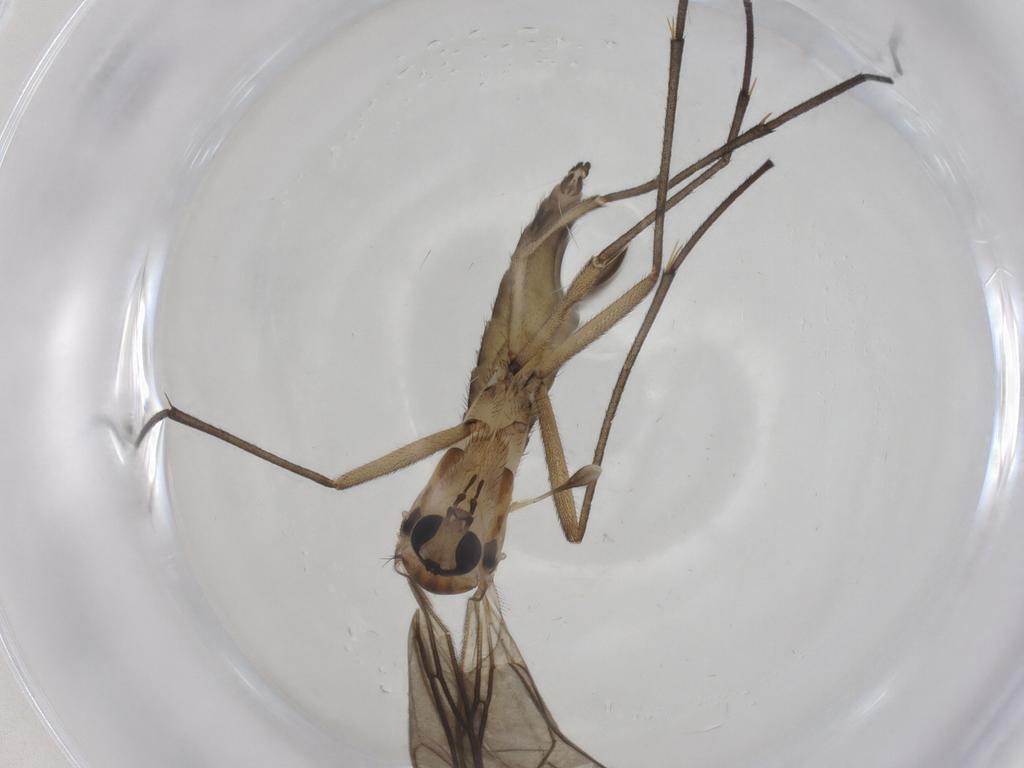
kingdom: Animalia
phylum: Arthropoda
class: Insecta
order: Diptera
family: Sciaridae
